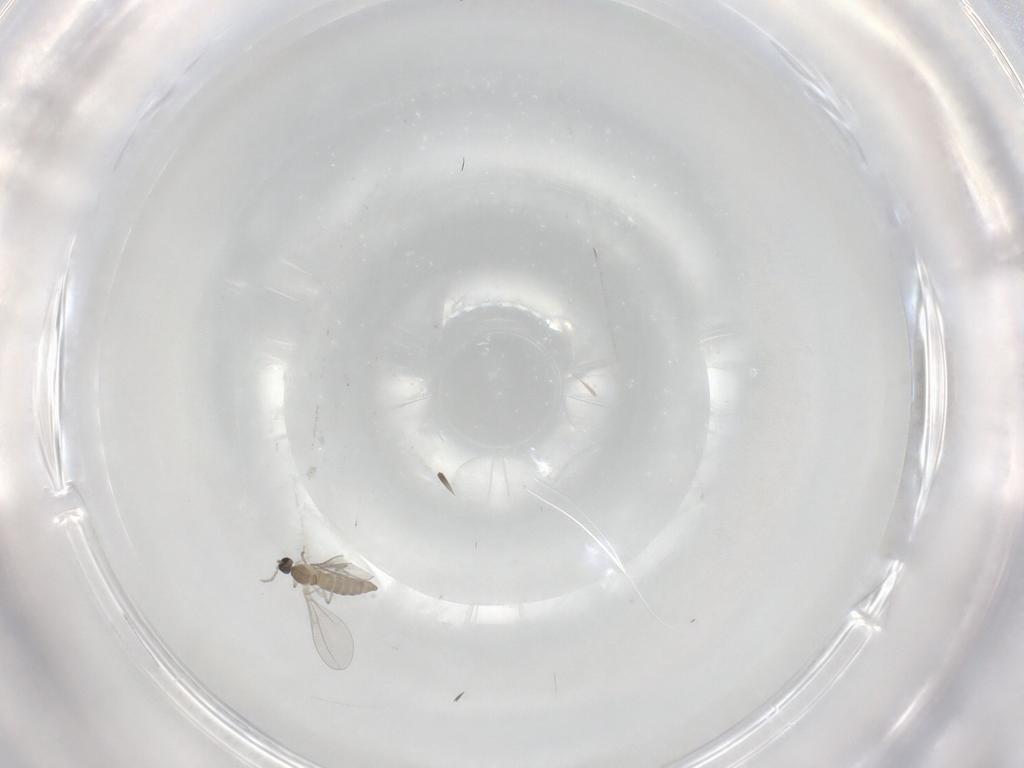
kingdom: Animalia
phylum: Arthropoda
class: Insecta
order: Diptera
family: Cecidomyiidae
